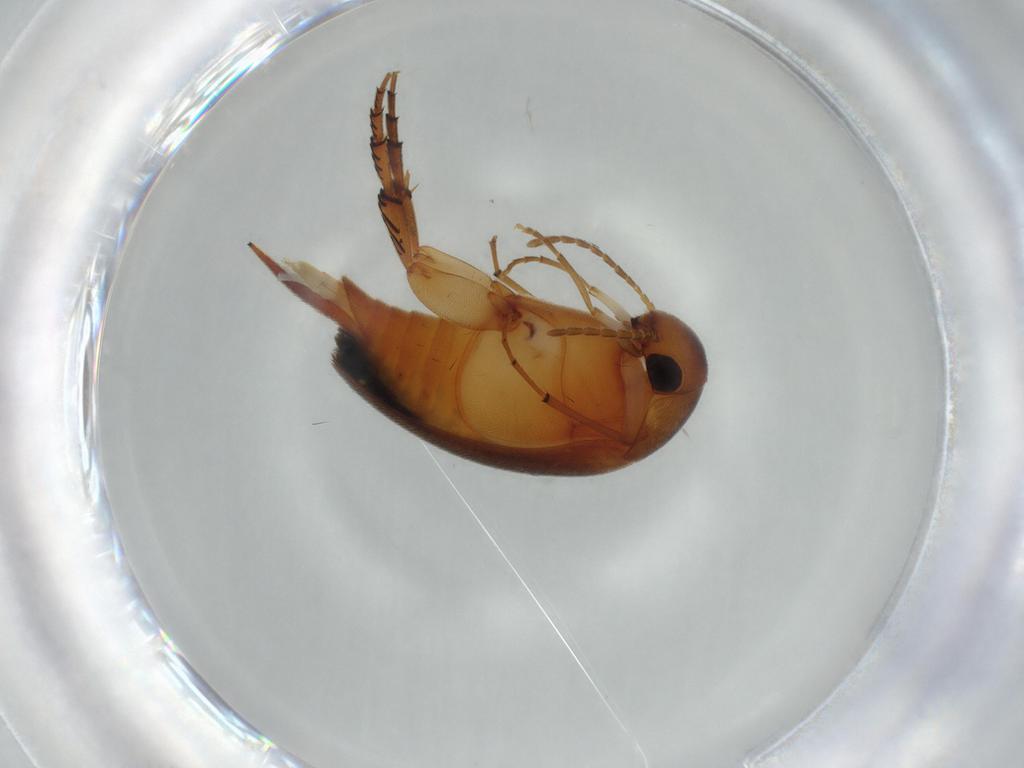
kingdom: Animalia
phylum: Arthropoda
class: Insecta
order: Coleoptera
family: Mordellidae
